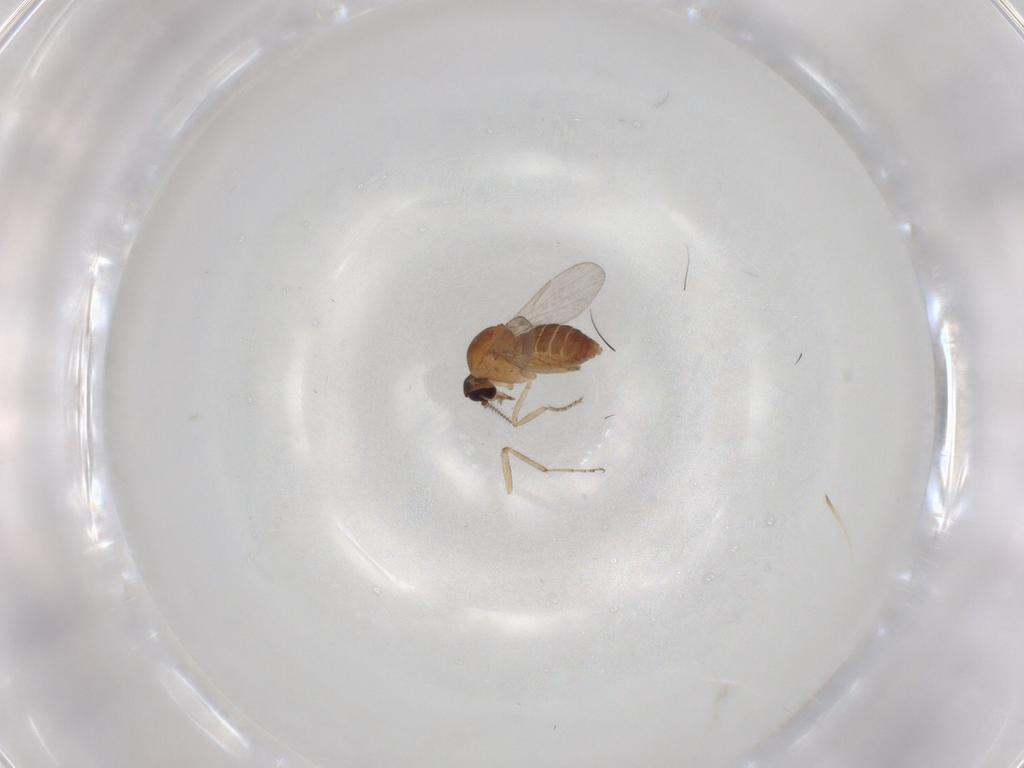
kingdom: Animalia
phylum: Arthropoda
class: Insecta
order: Diptera
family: Ceratopogonidae
